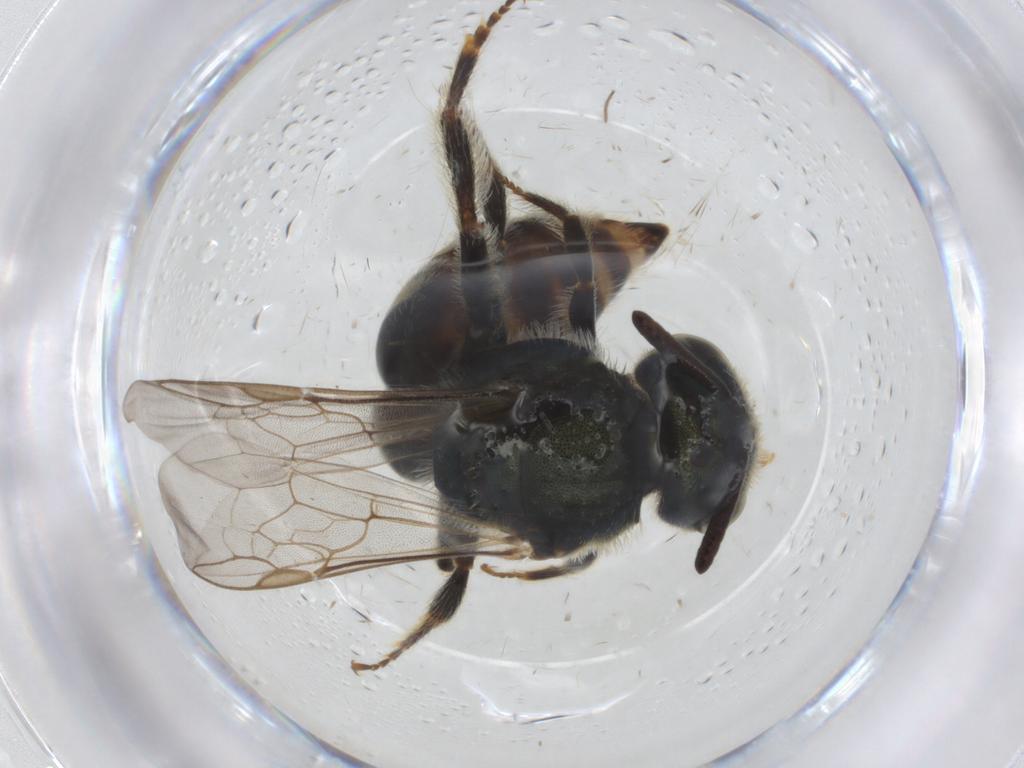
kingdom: Animalia
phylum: Arthropoda
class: Insecta
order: Hymenoptera
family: Halictidae
